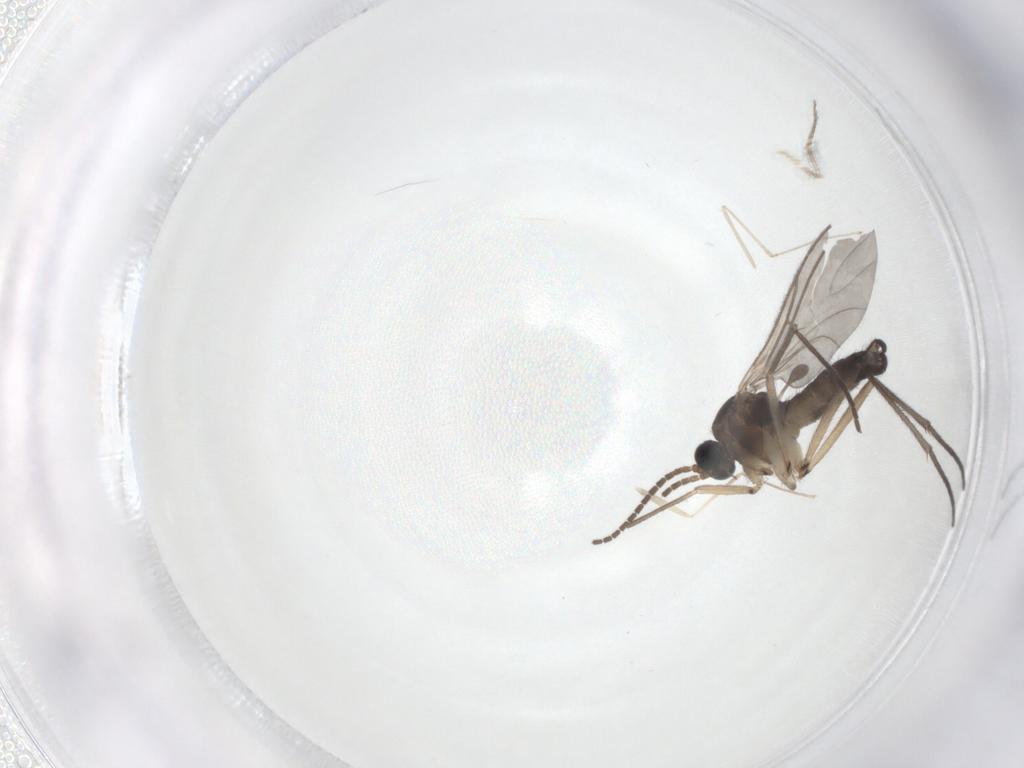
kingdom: Animalia
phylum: Arthropoda
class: Insecta
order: Diptera
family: Sciaridae
